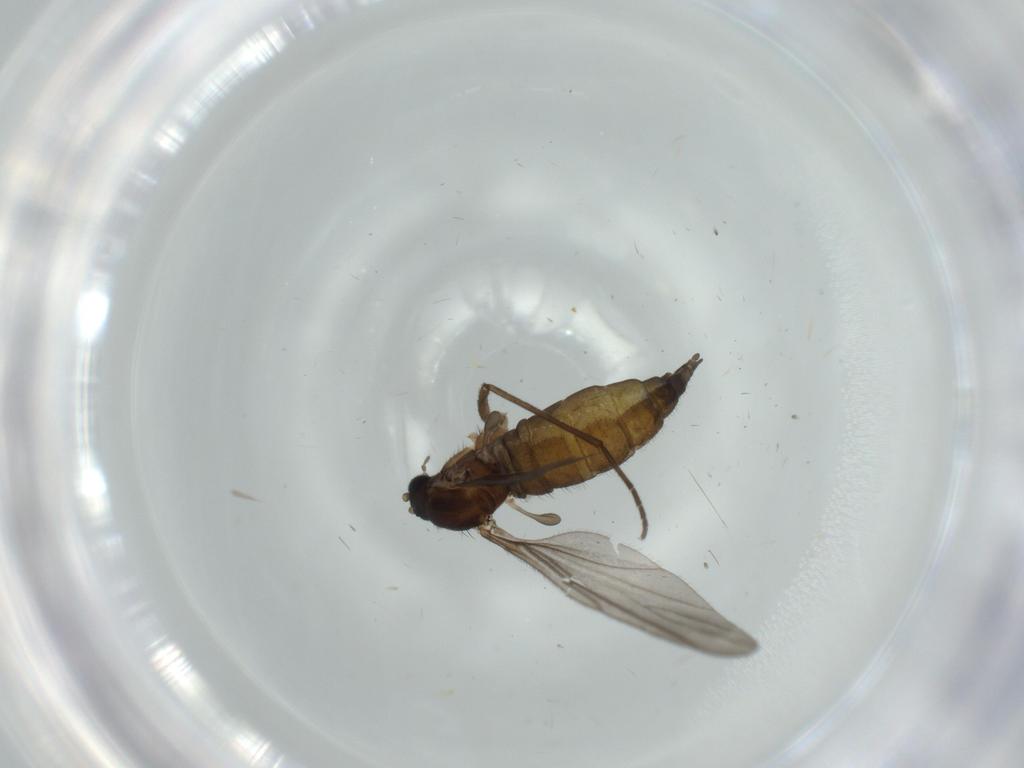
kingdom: Animalia
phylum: Arthropoda
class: Insecta
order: Diptera
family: Sciaridae
